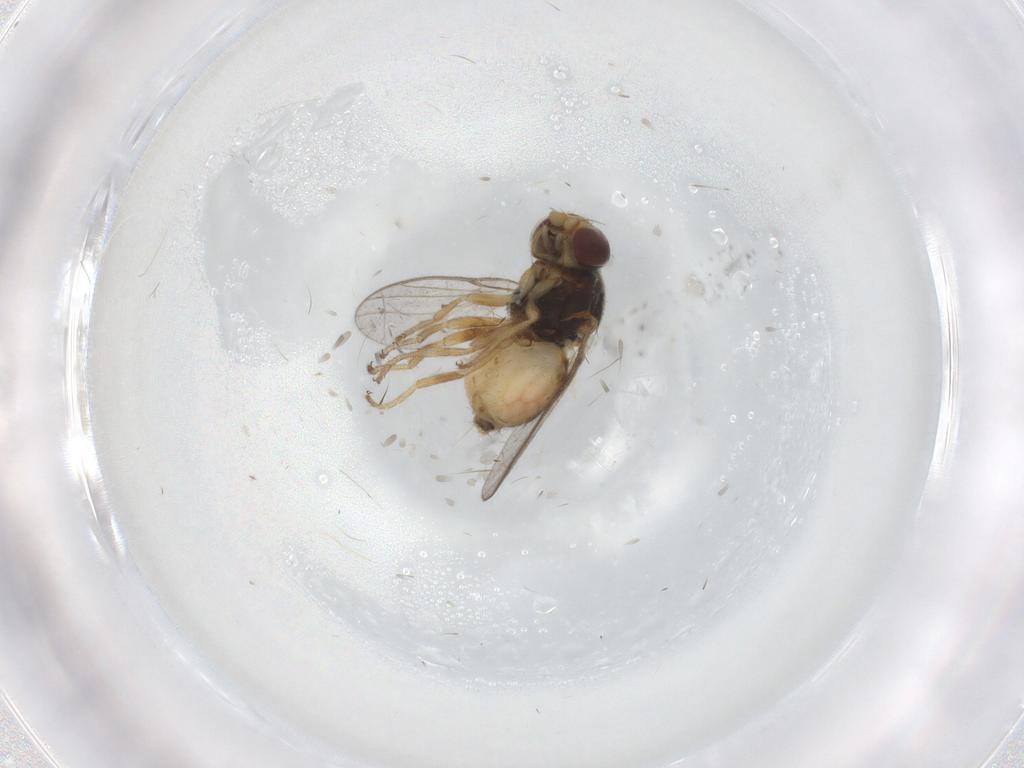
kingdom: Animalia
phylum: Arthropoda
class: Insecta
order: Diptera
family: Chloropidae
